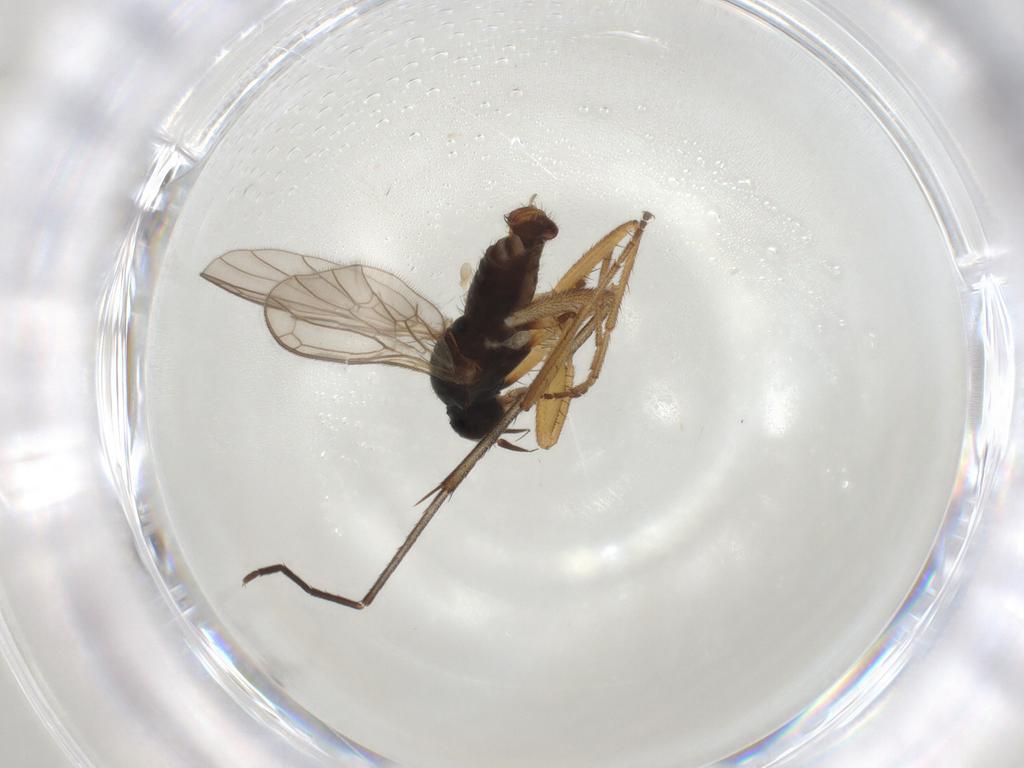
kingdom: Animalia
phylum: Arthropoda
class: Insecta
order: Diptera
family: Empididae
